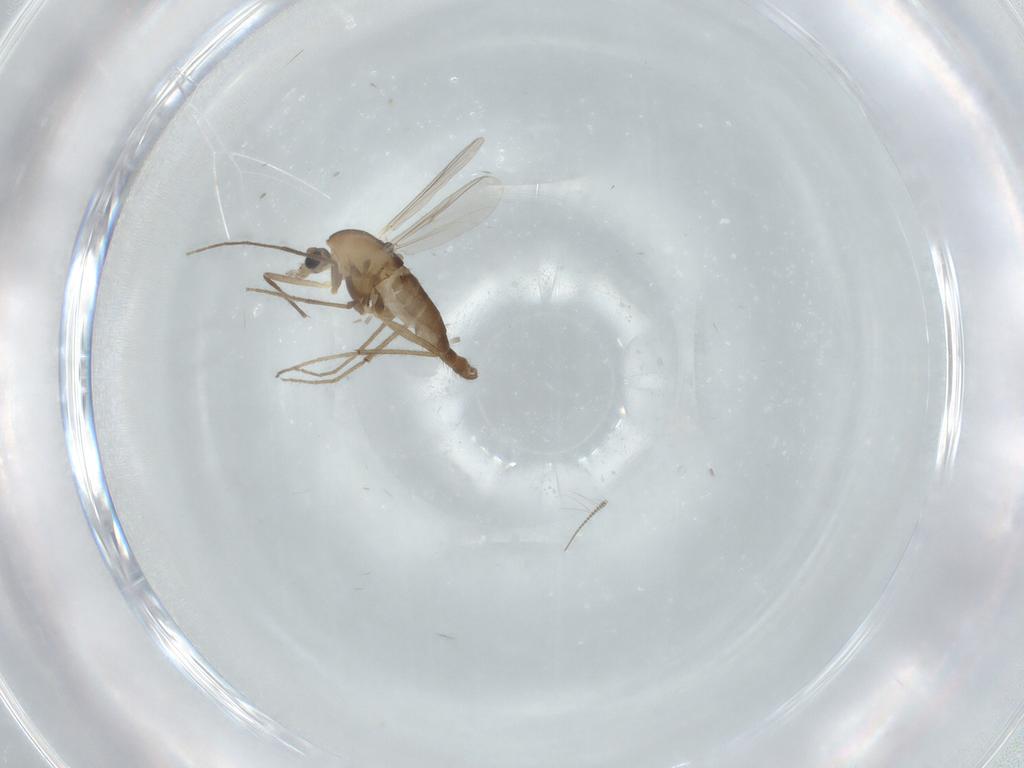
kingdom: Animalia
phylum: Arthropoda
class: Insecta
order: Diptera
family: Chironomidae
